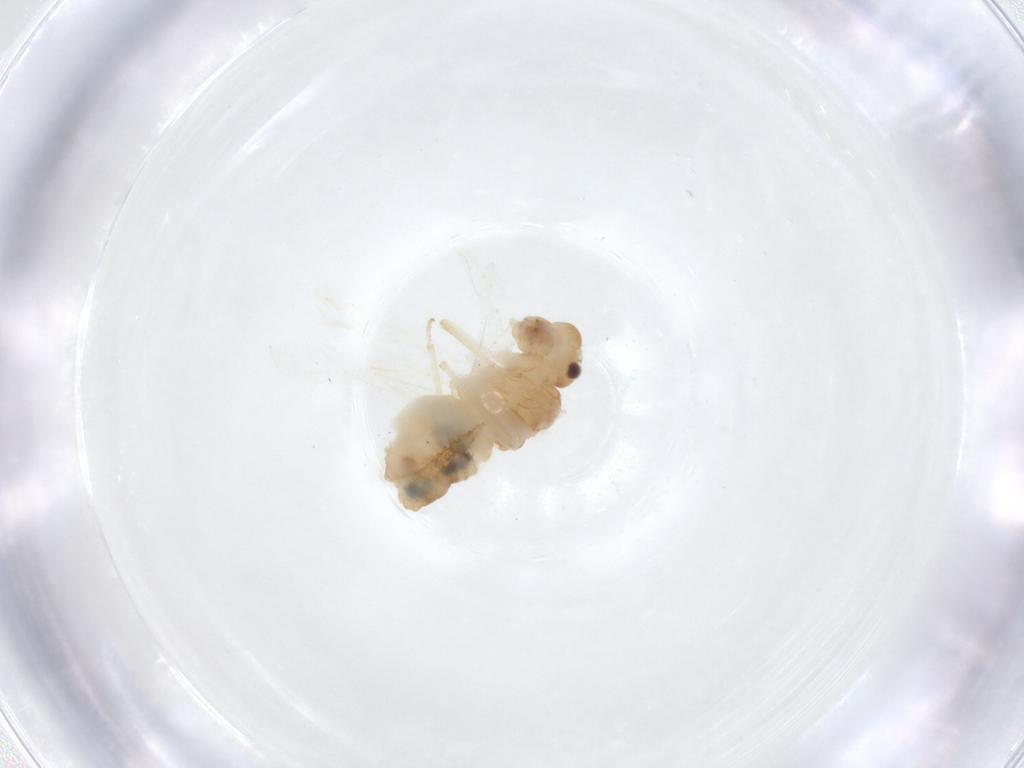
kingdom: Animalia
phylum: Arthropoda
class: Insecta
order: Psocodea
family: Philotarsidae
